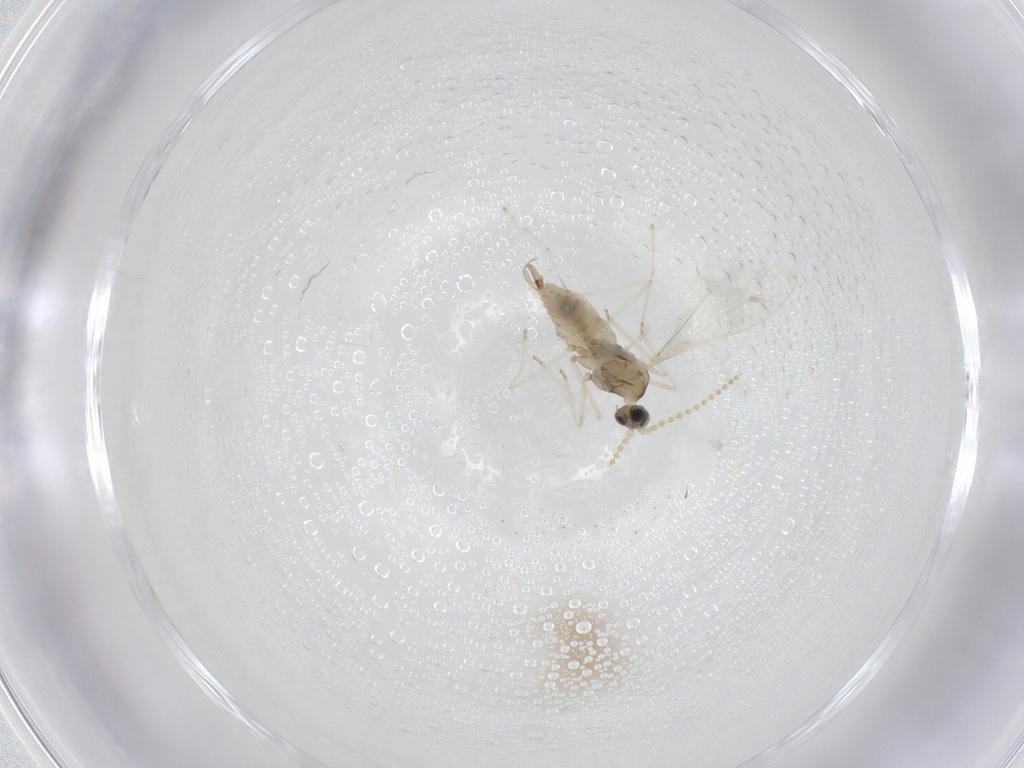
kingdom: Animalia
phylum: Arthropoda
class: Insecta
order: Diptera
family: Cecidomyiidae
